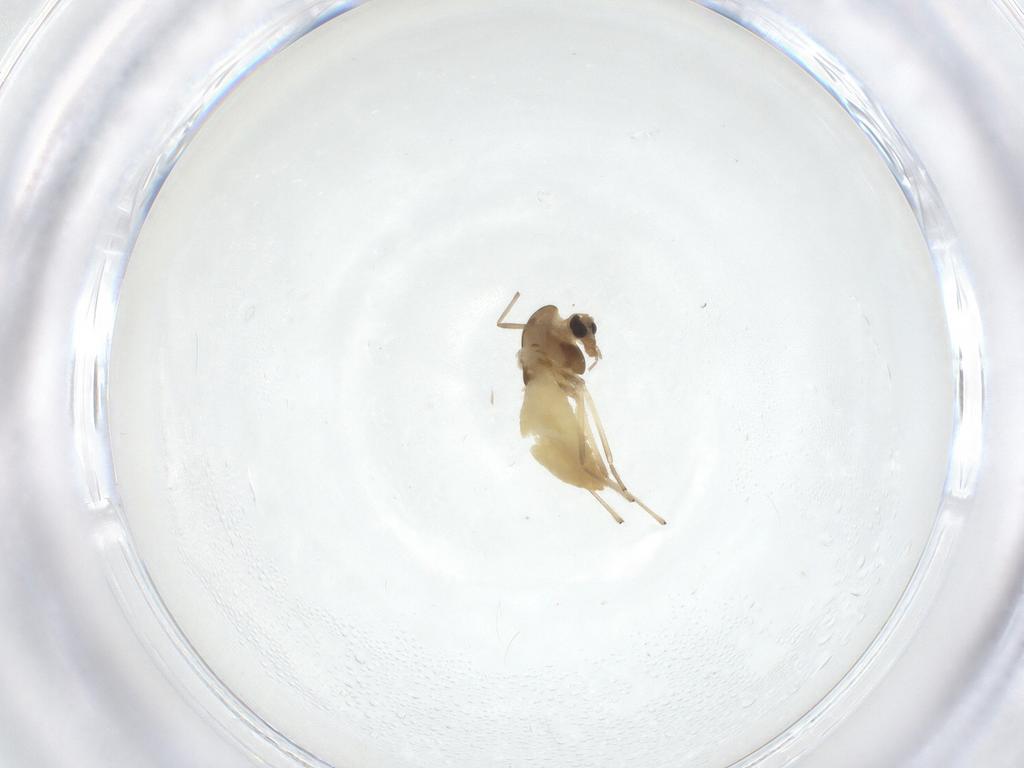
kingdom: Animalia
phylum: Arthropoda
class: Insecta
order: Diptera
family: Chironomidae
